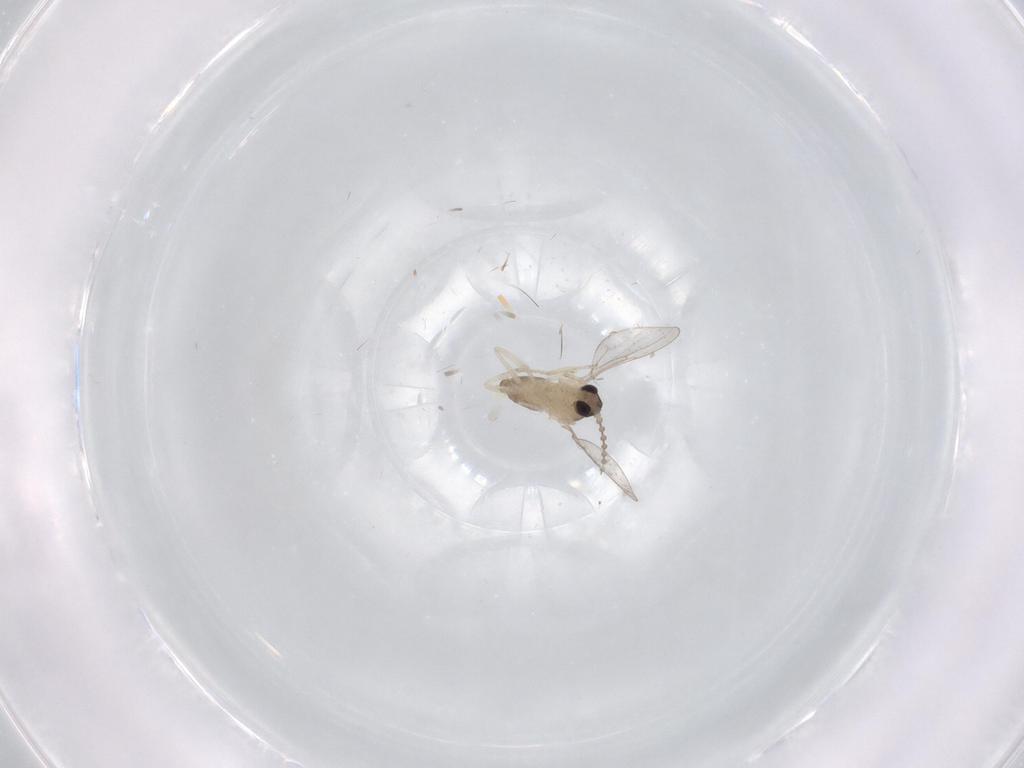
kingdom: Animalia
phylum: Arthropoda
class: Insecta
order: Diptera
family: Cecidomyiidae
